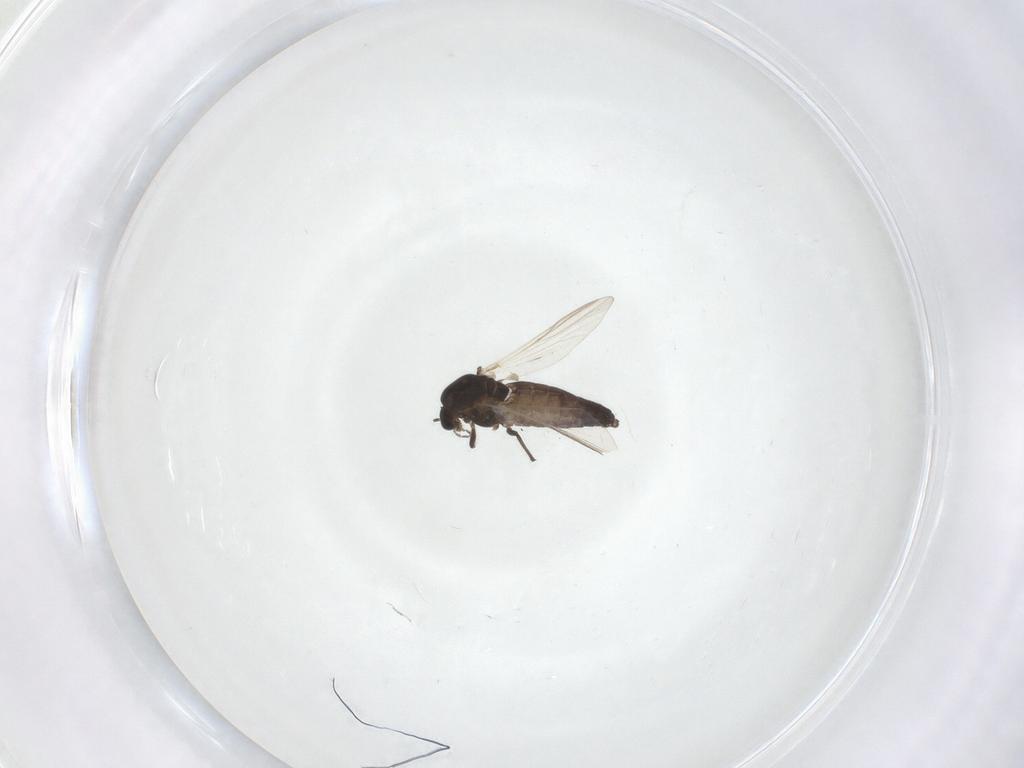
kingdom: Animalia
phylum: Arthropoda
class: Insecta
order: Diptera
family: Chironomidae
